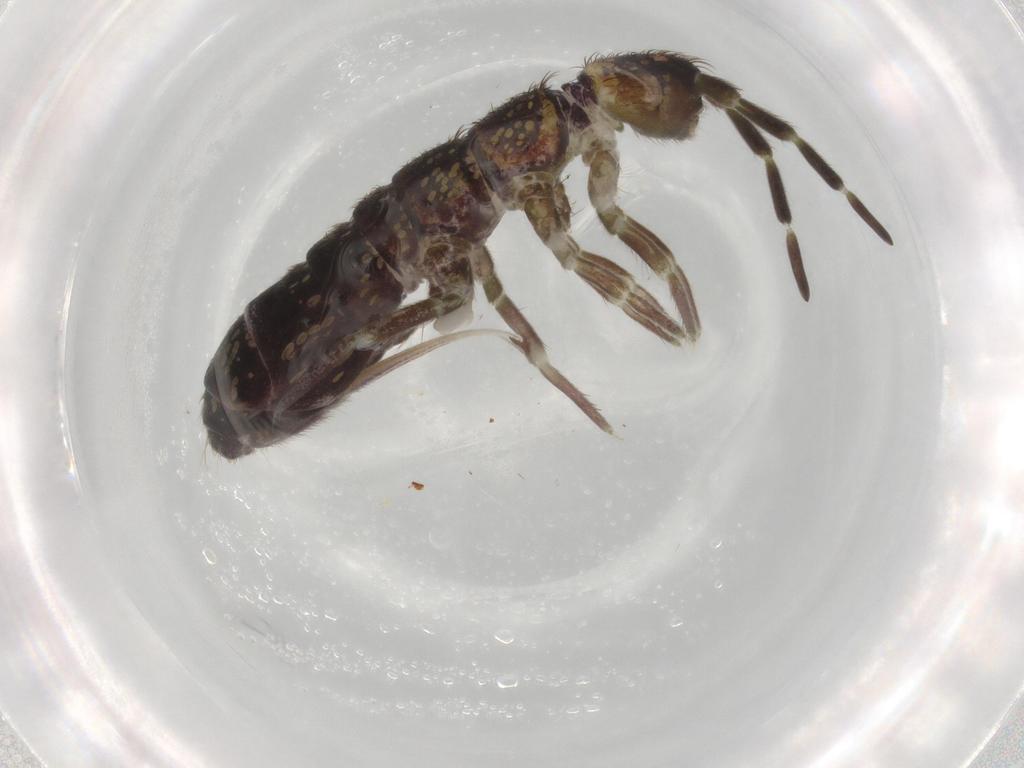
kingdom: Animalia
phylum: Arthropoda
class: Collembola
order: Entomobryomorpha
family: Isotomidae
